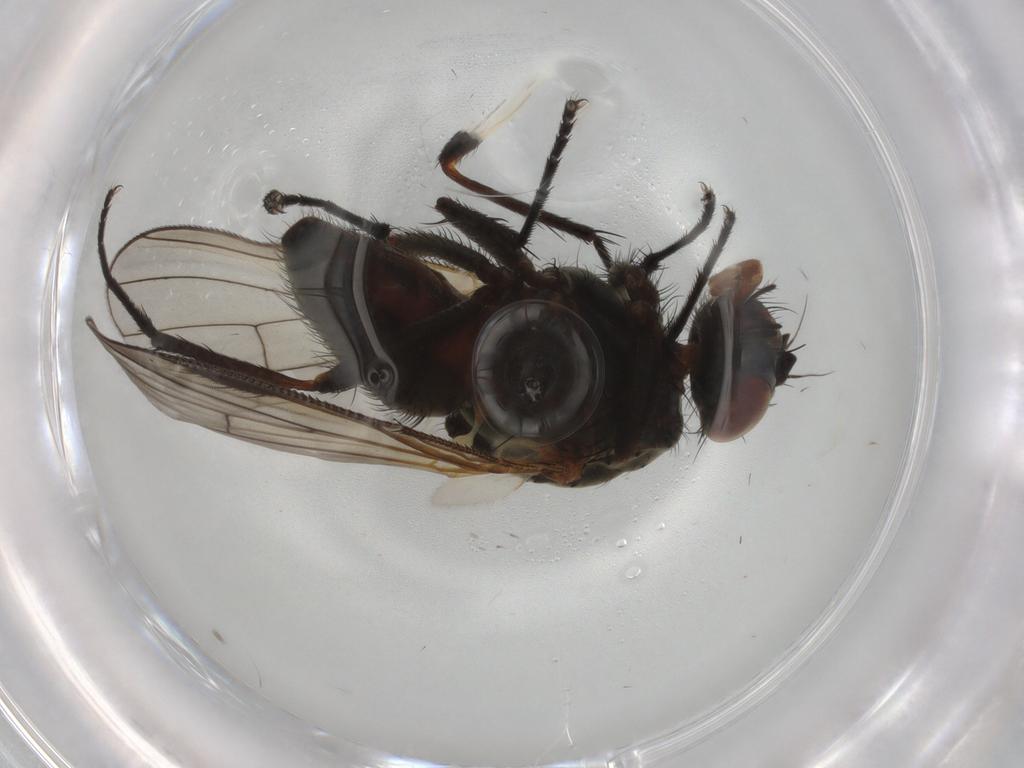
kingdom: Animalia
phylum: Arthropoda
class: Insecta
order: Diptera
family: Anthomyiidae
